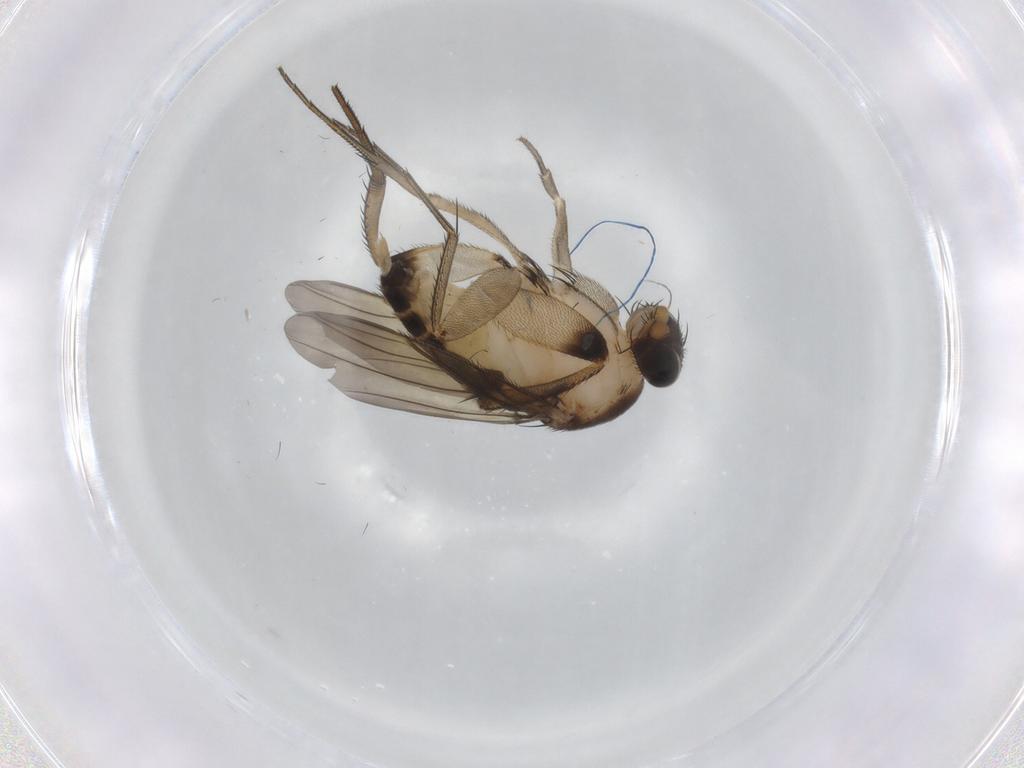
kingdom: Animalia
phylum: Arthropoda
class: Insecta
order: Diptera
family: Phoridae
